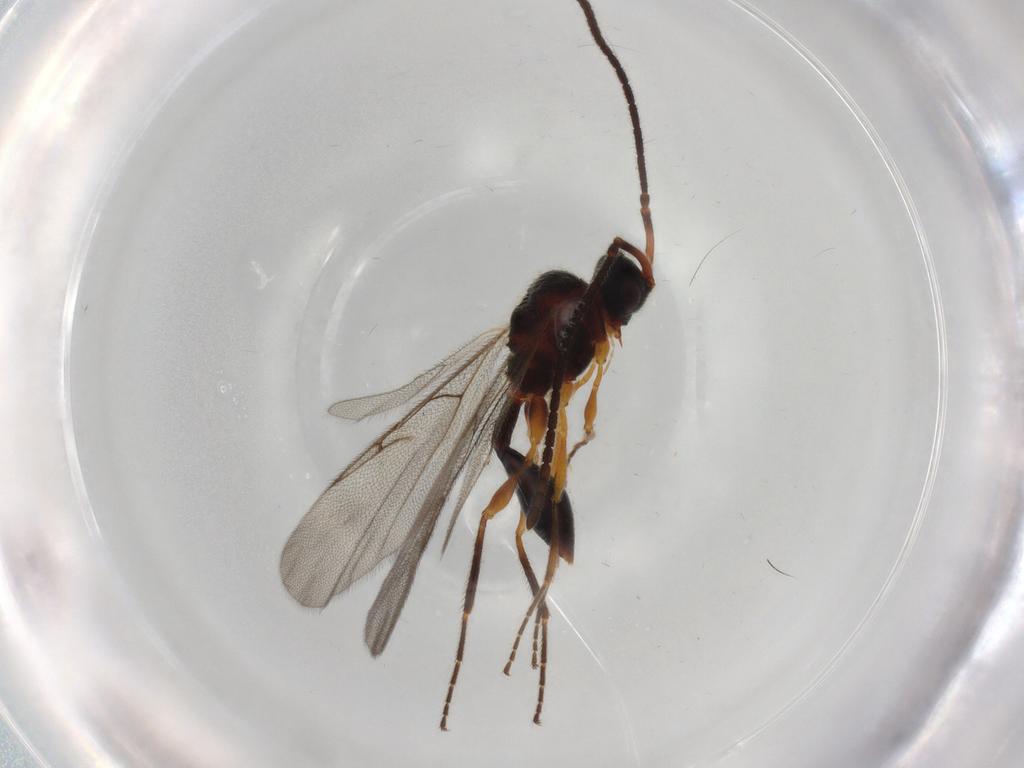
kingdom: Animalia
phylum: Arthropoda
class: Insecta
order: Hymenoptera
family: Diapriidae
